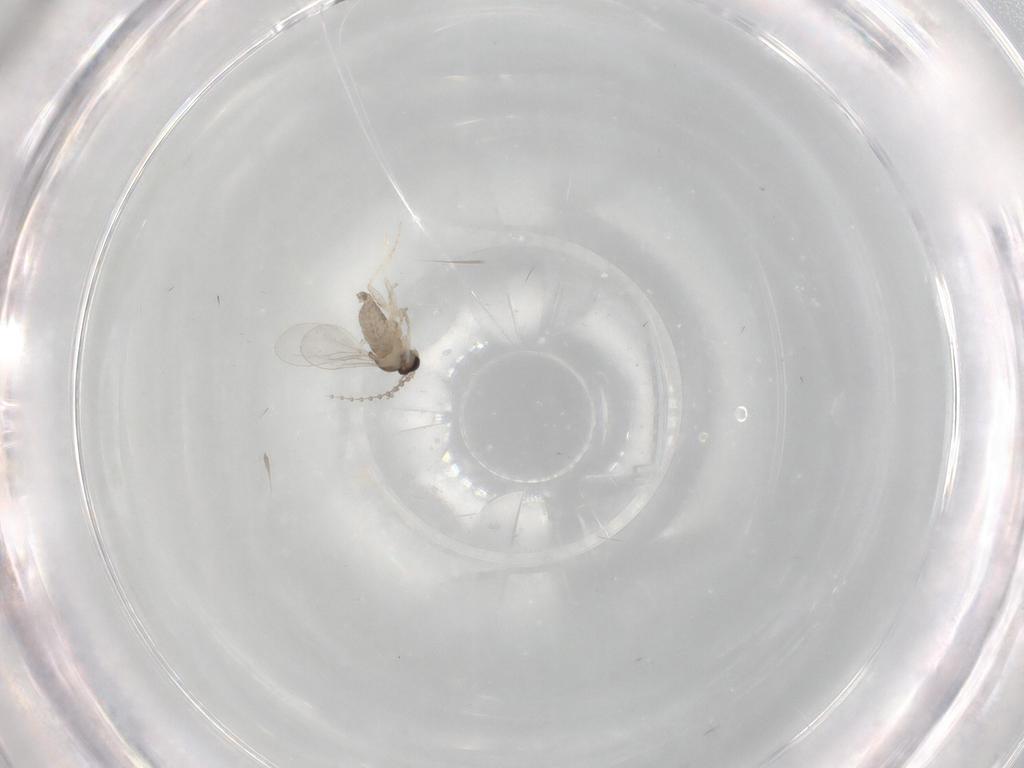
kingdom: Animalia
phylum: Arthropoda
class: Insecta
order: Diptera
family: Cecidomyiidae
